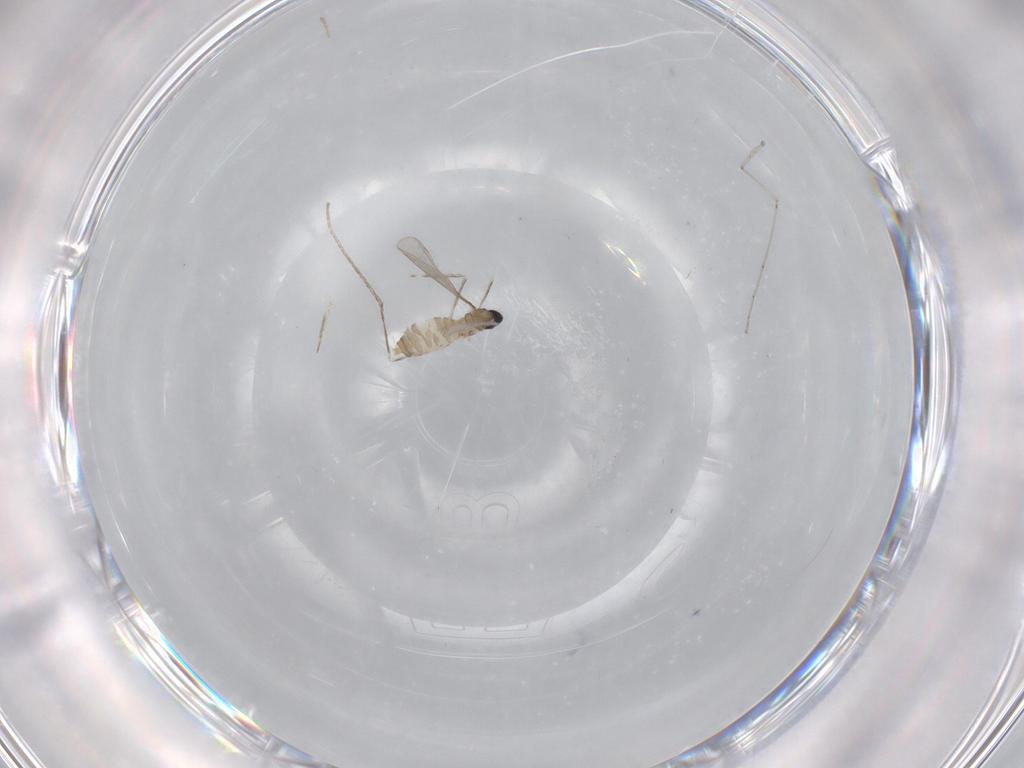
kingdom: Animalia
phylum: Arthropoda
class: Insecta
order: Diptera
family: Cecidomyiidae
